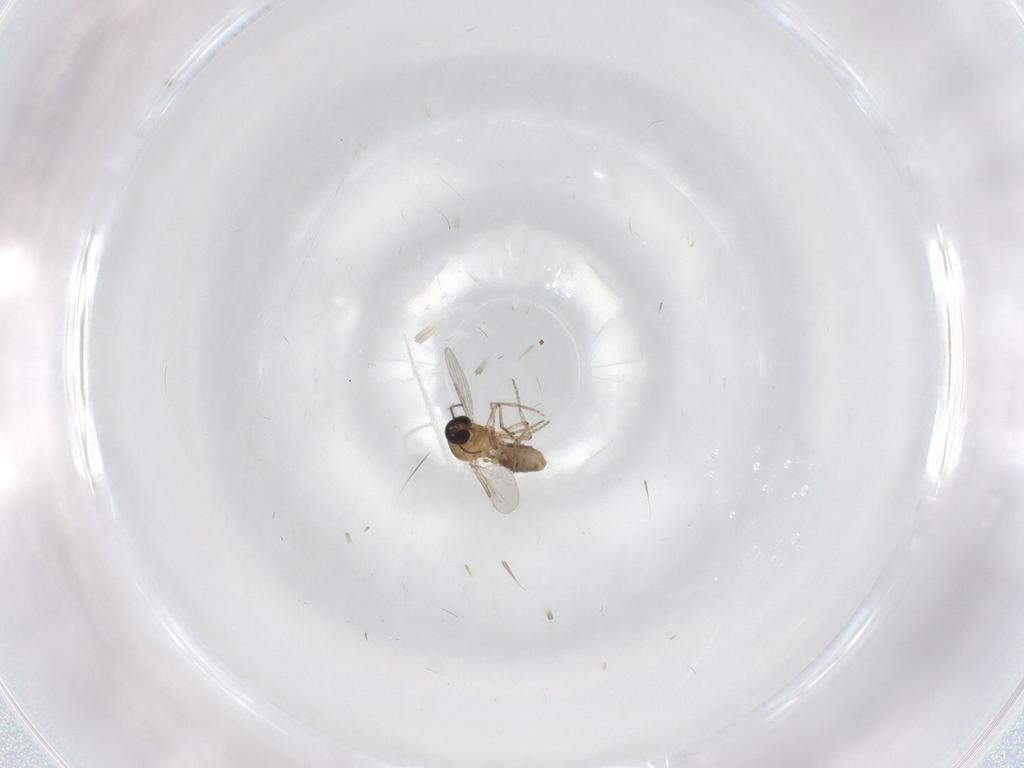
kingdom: Animalia
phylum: Arthropoda
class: Insecta
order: Diptera
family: Ceratopogonidae
